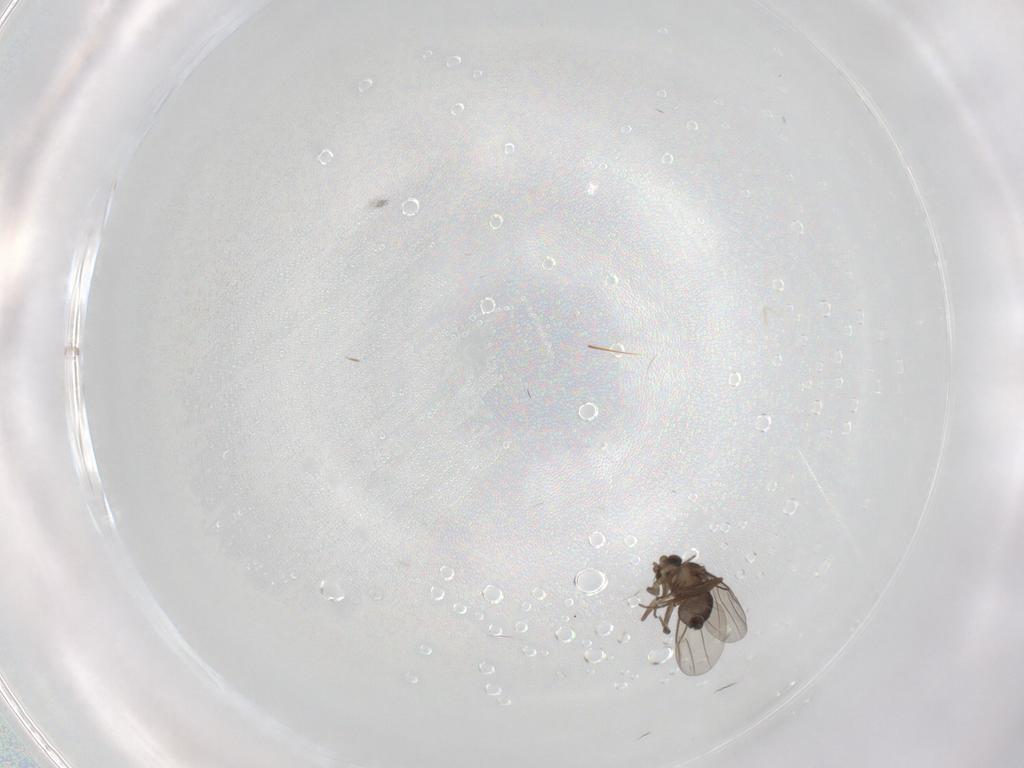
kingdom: Animalia
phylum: Arthropoda
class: Insecta
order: Diptera
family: Phoridae
